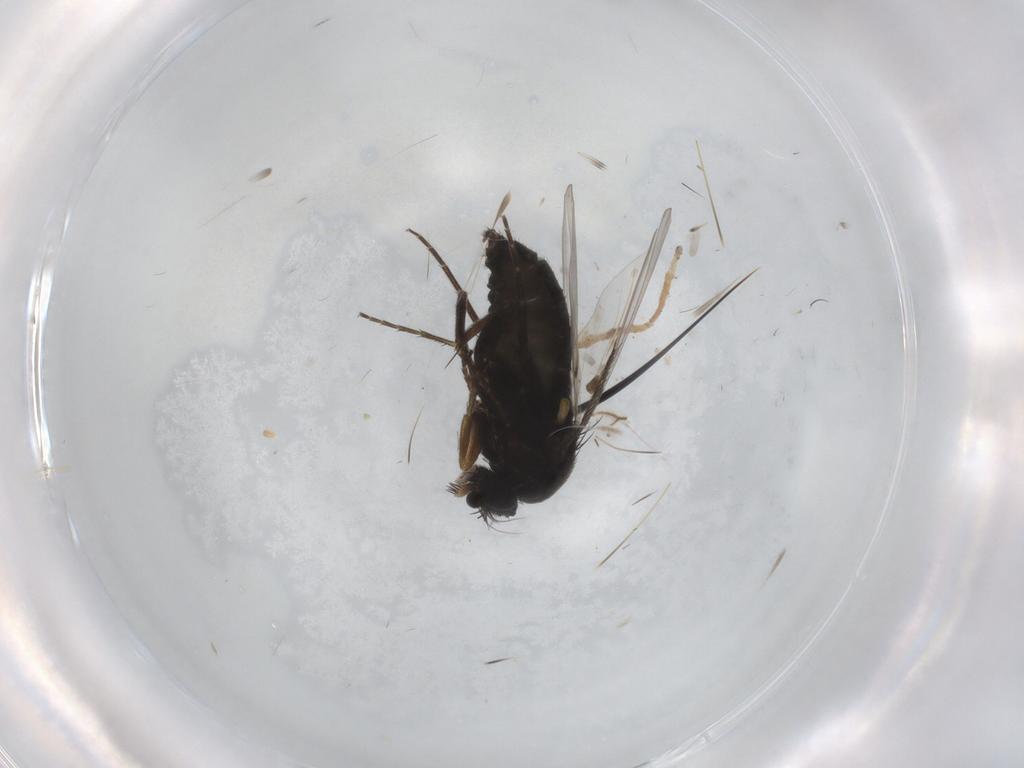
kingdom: Animalia
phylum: Arthropoda
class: Insecta
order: Diptera
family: Phoridae
